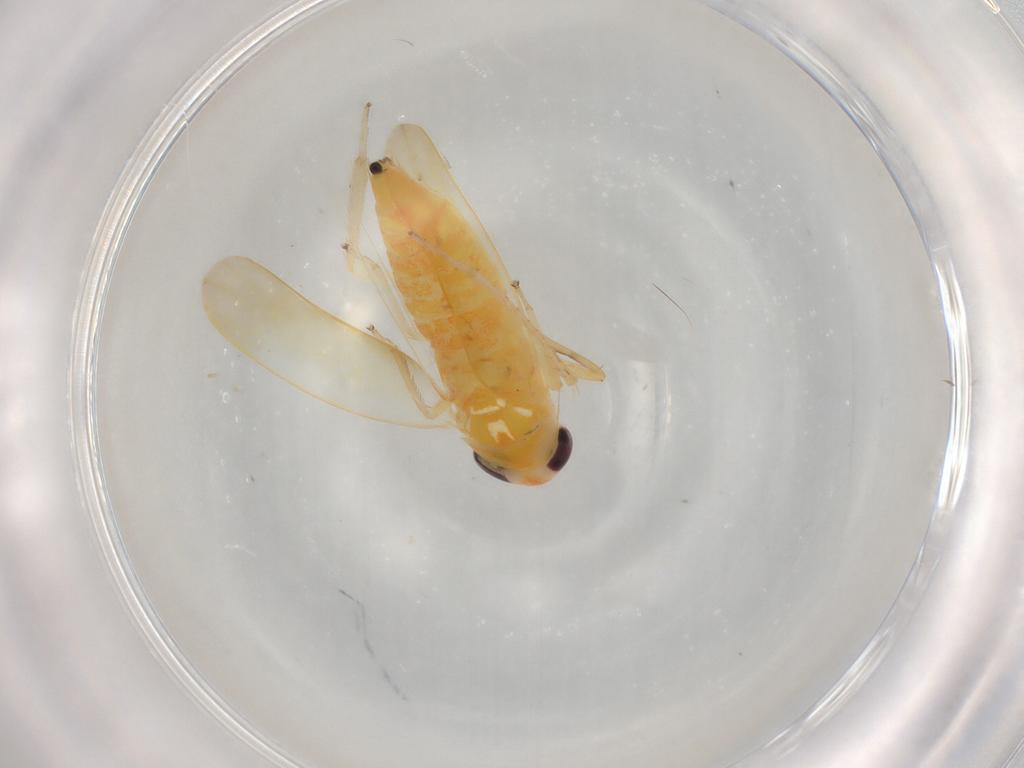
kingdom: Animalia
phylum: Arthropoda
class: Insecta
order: Hemiptera
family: Cicadellidae
